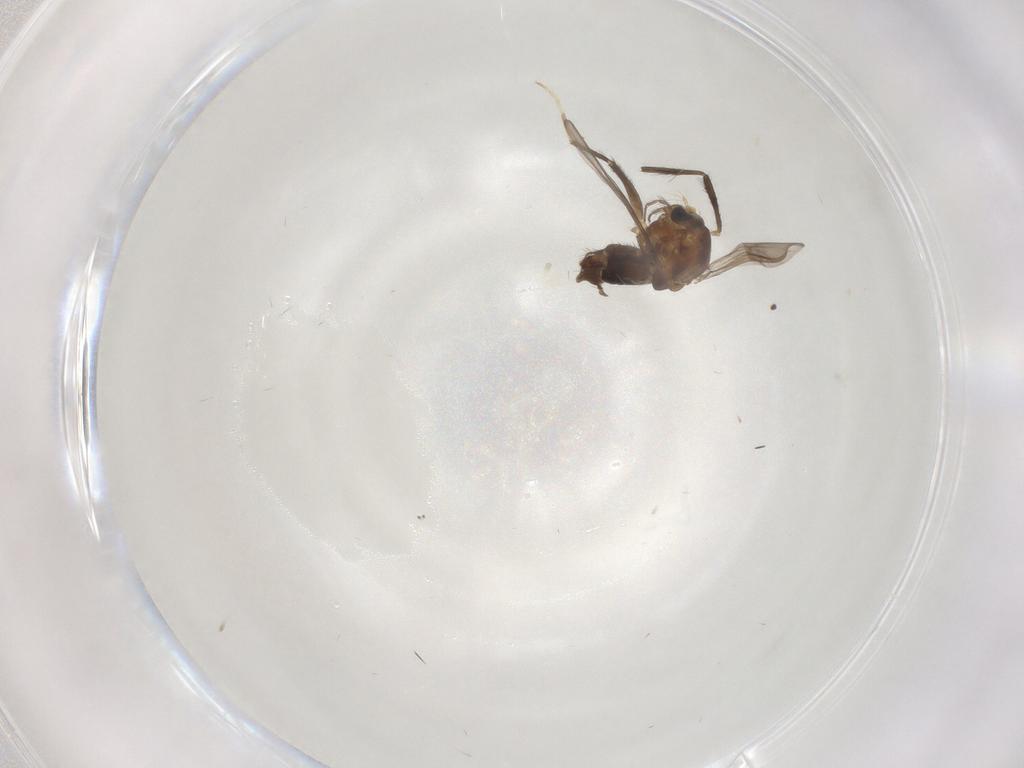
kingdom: Animalia
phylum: Arthropoda
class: Insecta
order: Diptera
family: Chironomidae
